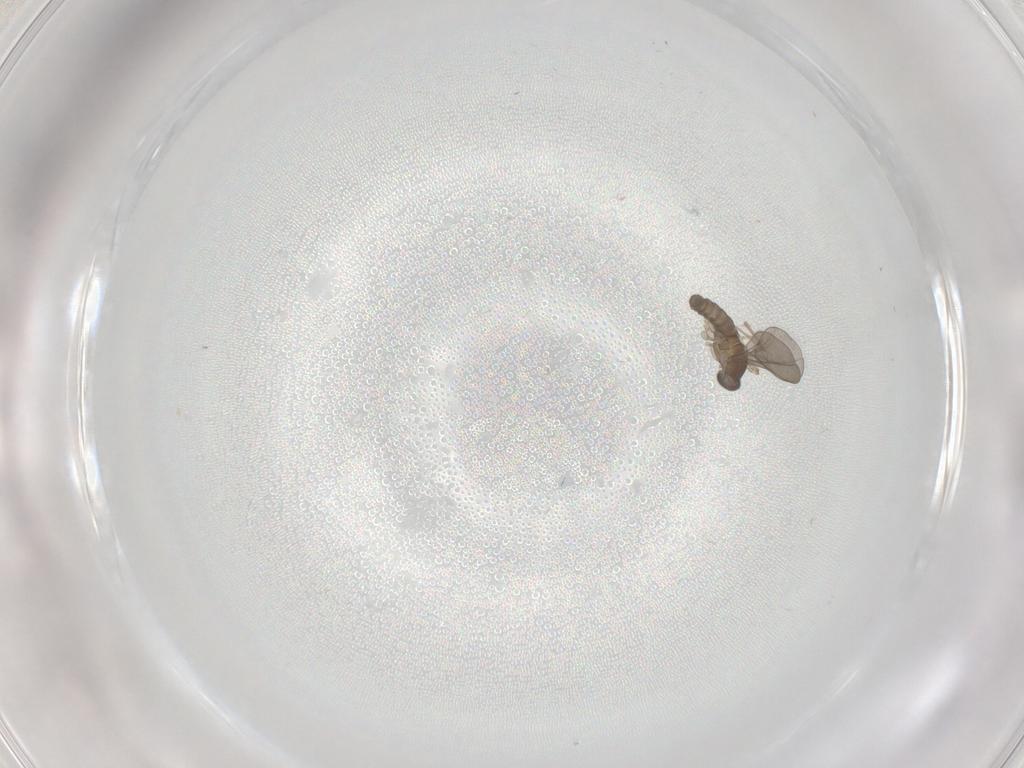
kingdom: Animalia
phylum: Arthropoda
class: Insecta
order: Diptera
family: Cecidomyiidae
